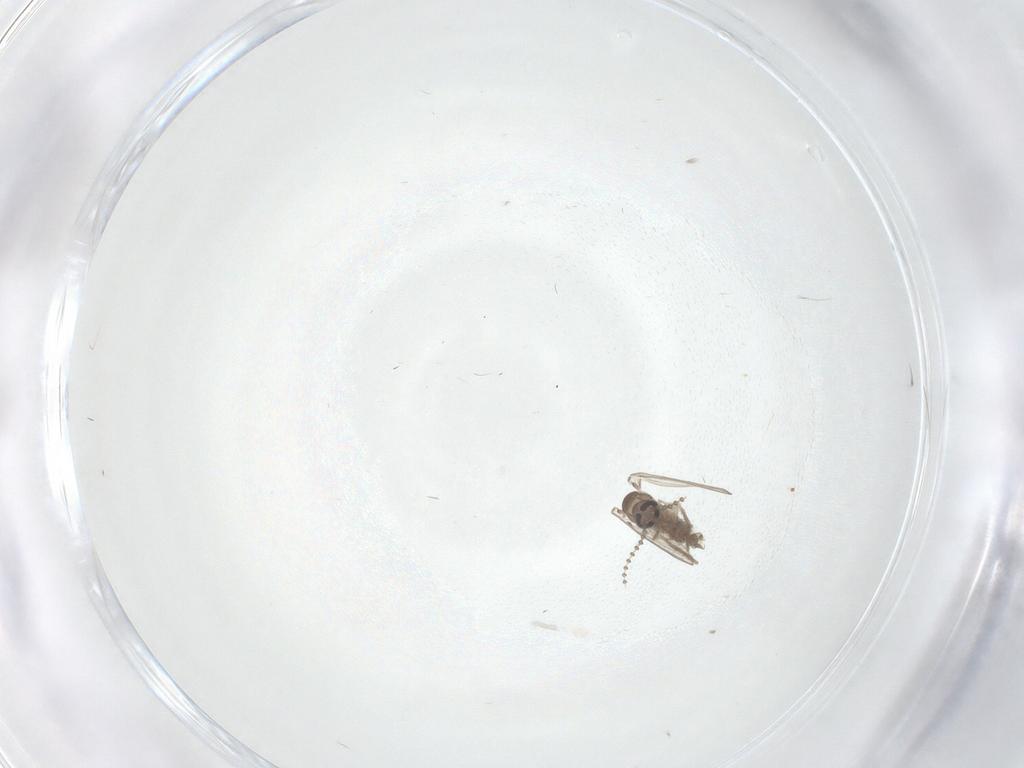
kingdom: Animalia
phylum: Arthropoda
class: Insecta
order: Diptera
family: Psychodidae
